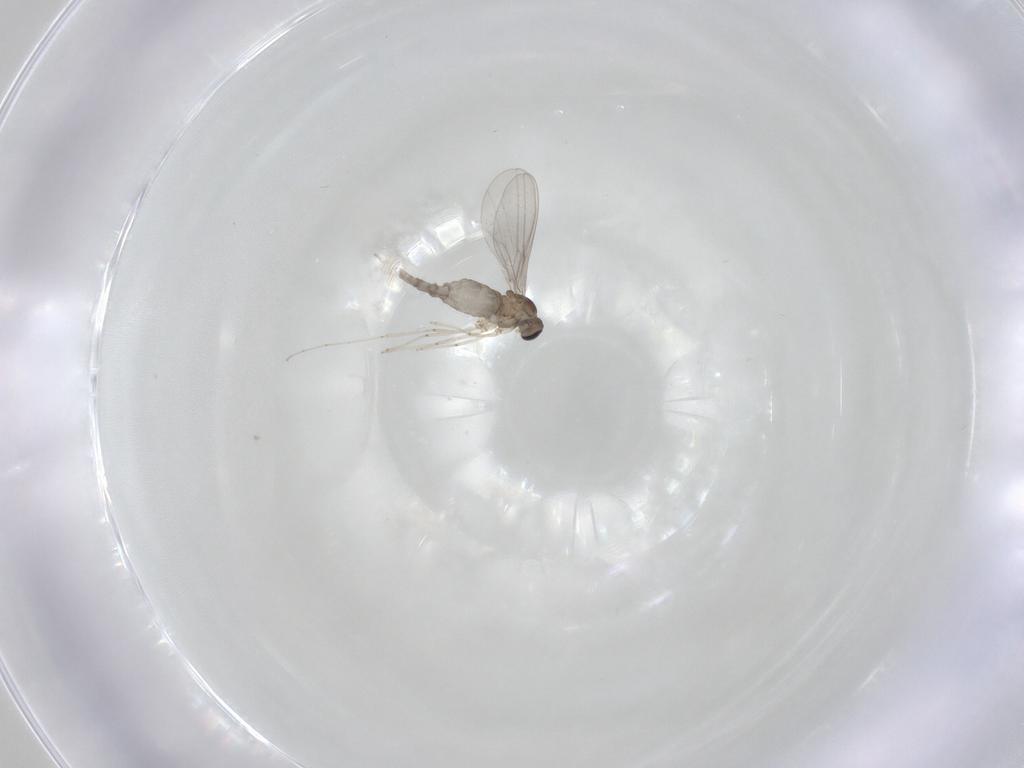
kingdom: Animalia
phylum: Arthropoda
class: Insecta
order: Diptera
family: Cecidomyiidae
